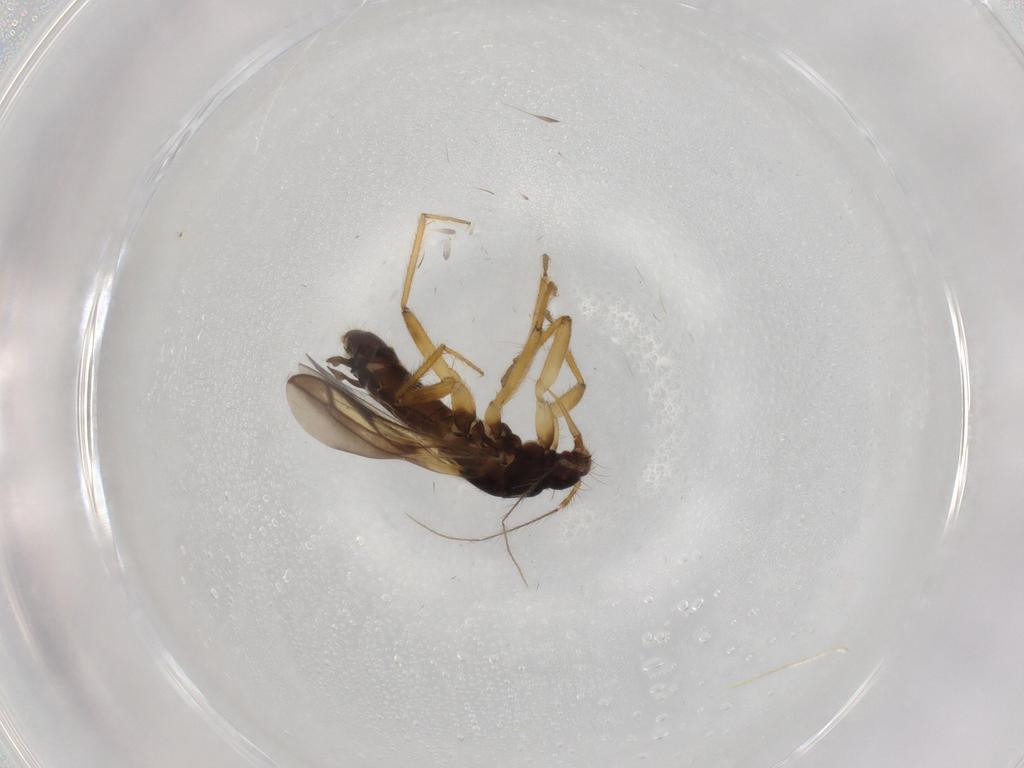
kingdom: Animalia
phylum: Arthropoda
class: Insecta
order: Hemiptera
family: Ceratocombidae
